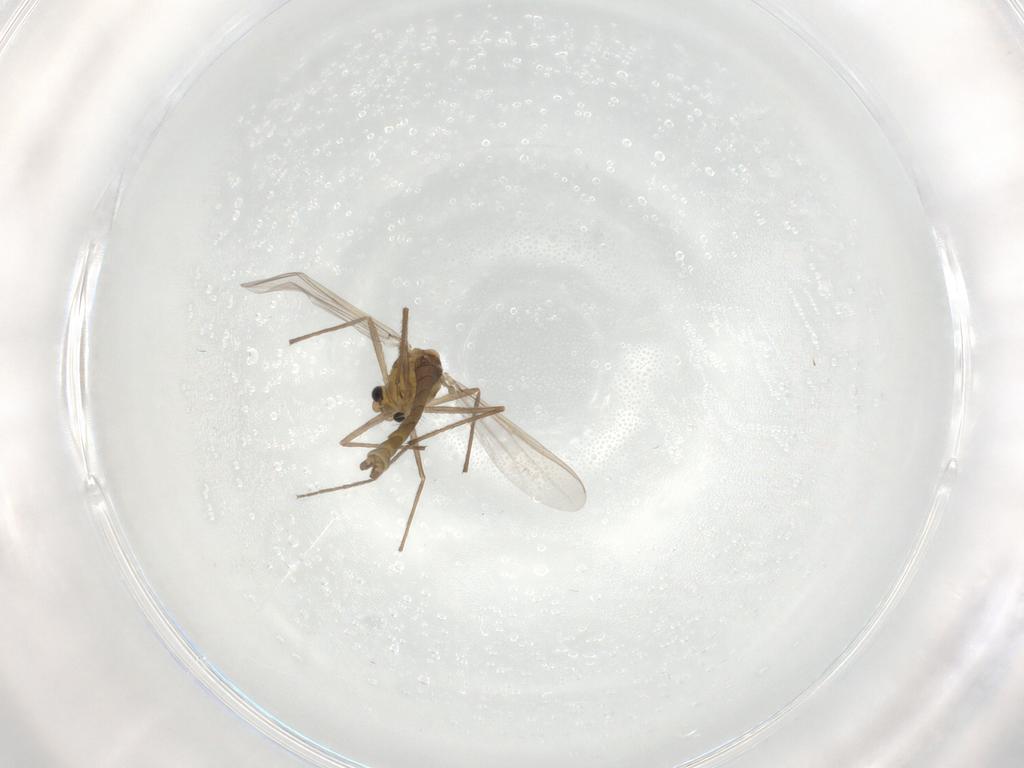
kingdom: Animalia
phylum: Arthropoda
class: Insecta
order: Diptera
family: Chironomidae
